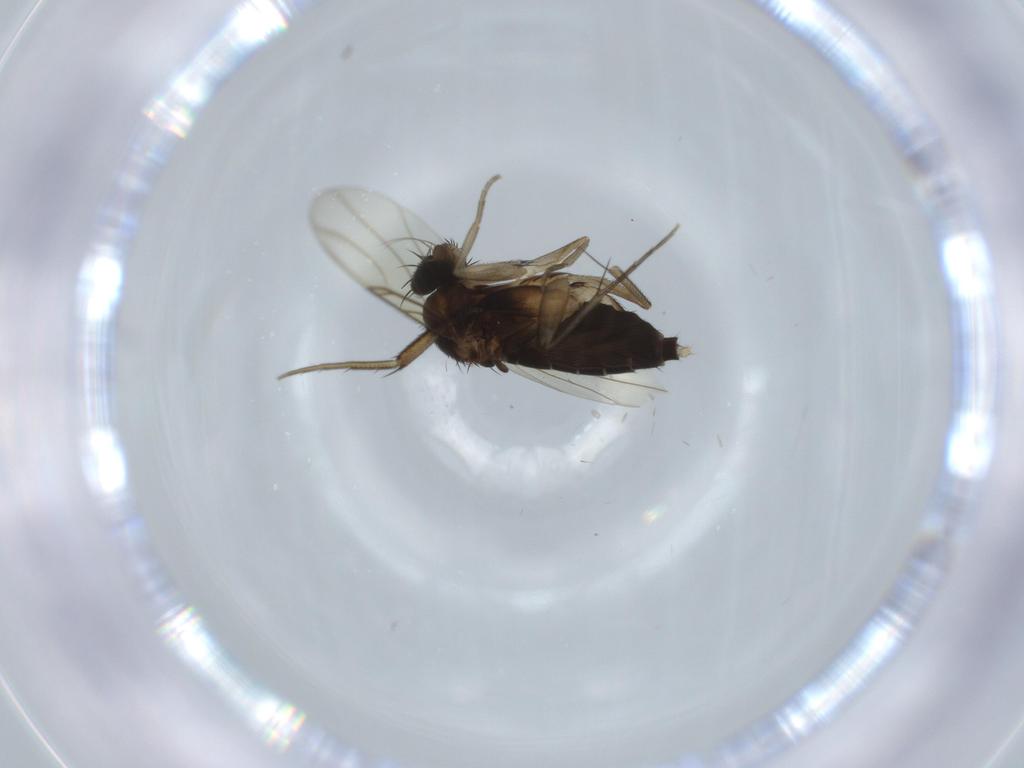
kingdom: Animalia
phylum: Arthropoda
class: Insecta
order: Diptera
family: Phoridae
